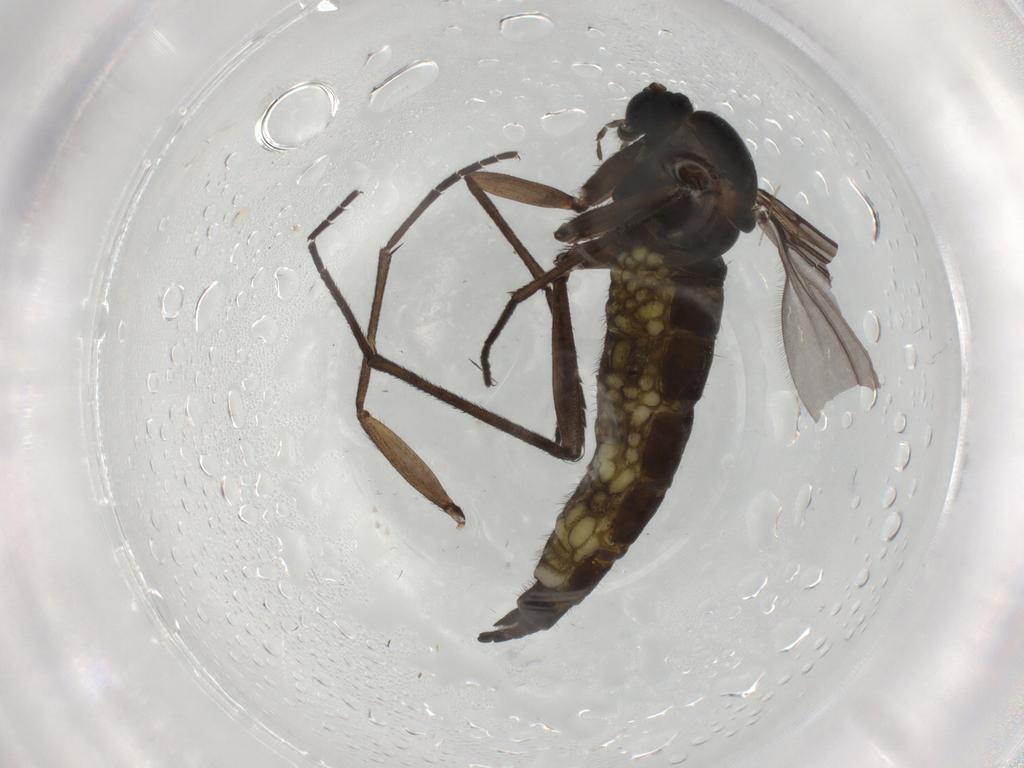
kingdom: Animalia
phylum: Arthropoda
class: Insecta
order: Diptera
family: Sciaridae
